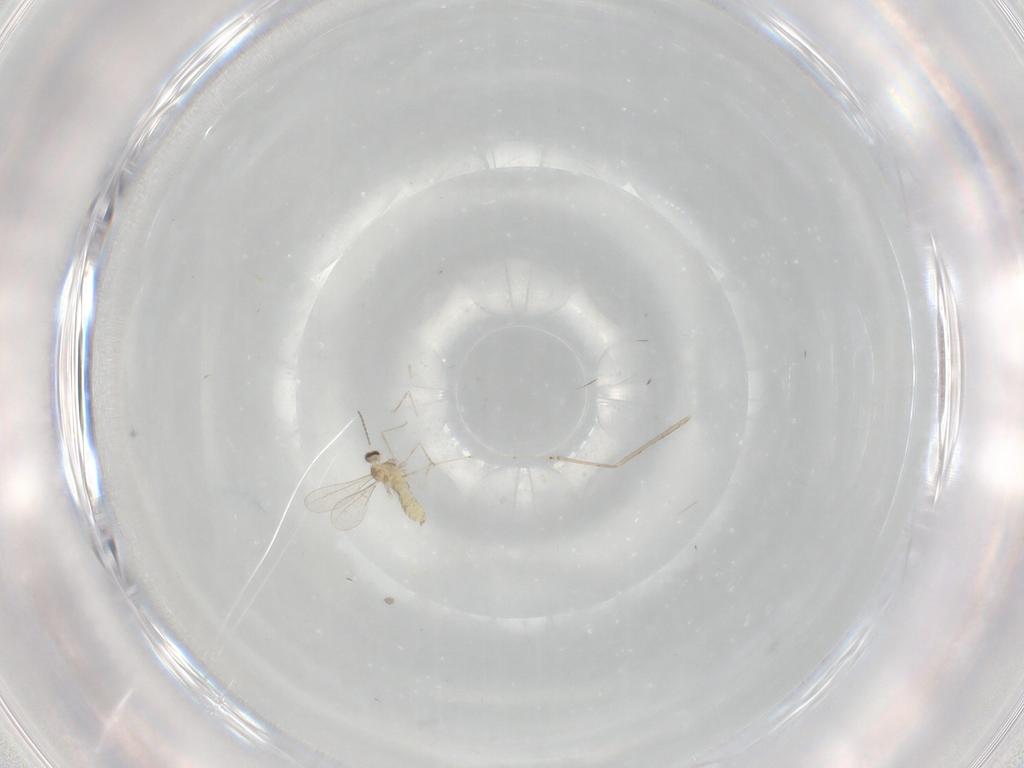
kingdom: Animalia
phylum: Arthropoda
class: Insecta
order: Diptera
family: Cecidomyiidae
